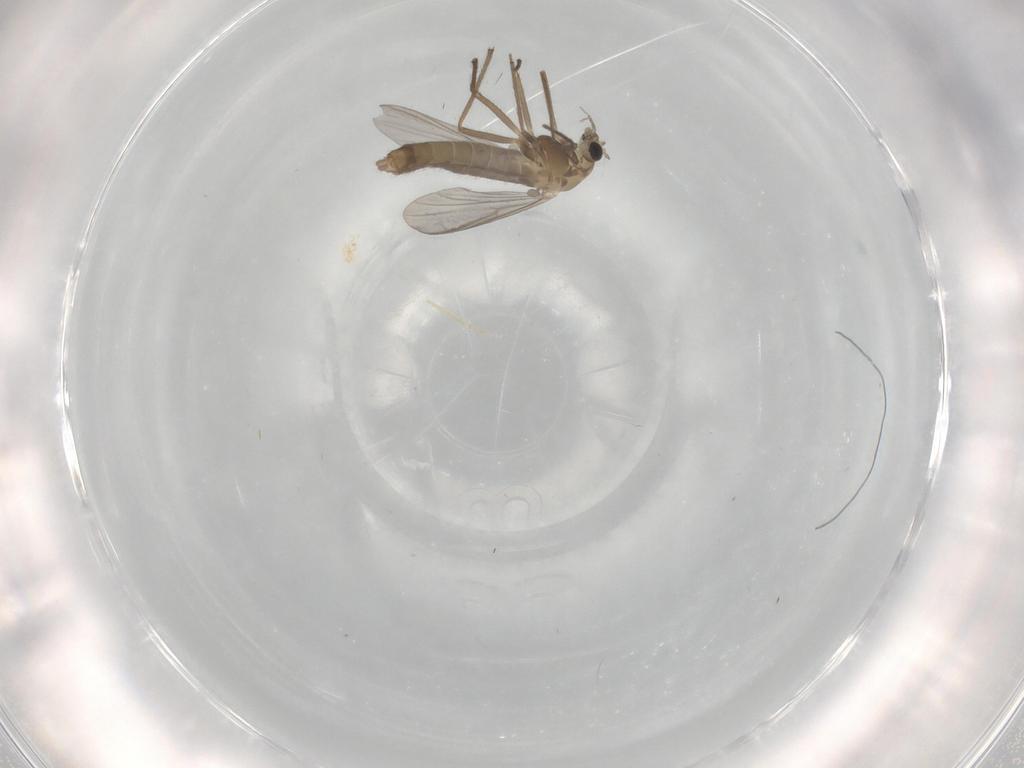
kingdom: Animalia
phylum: Arthropoda
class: Insecta
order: Diptera
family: Chironomidae
